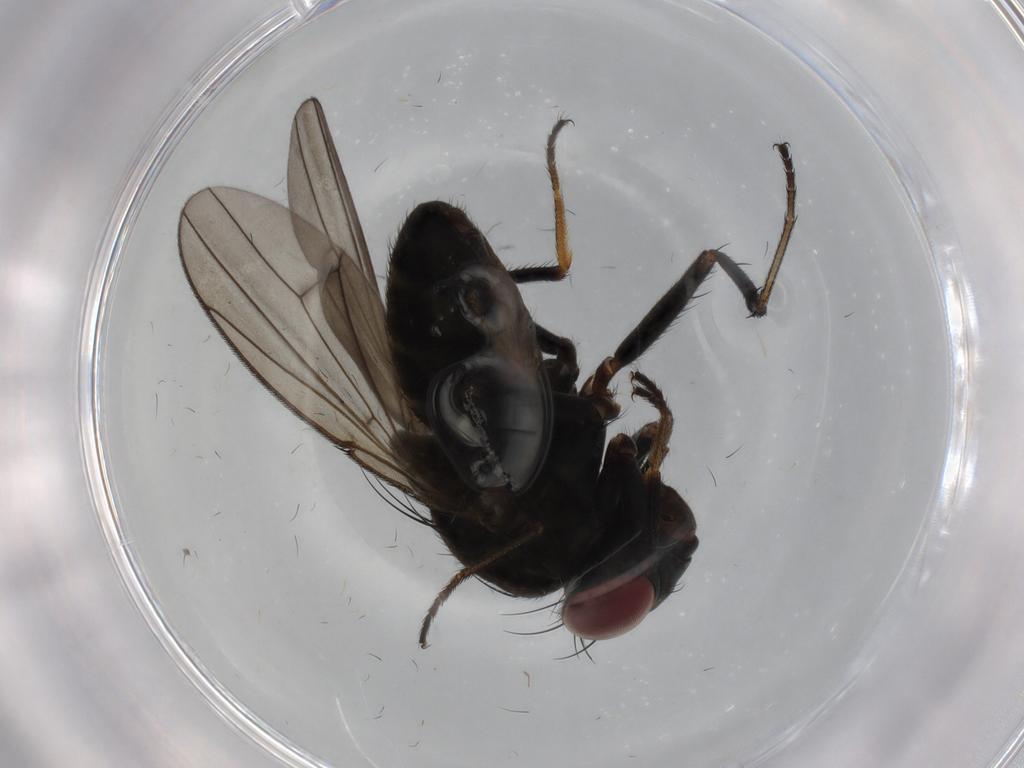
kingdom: Animalia
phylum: Arthropoda
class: Insecta
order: Diptera
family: Ephydridae
